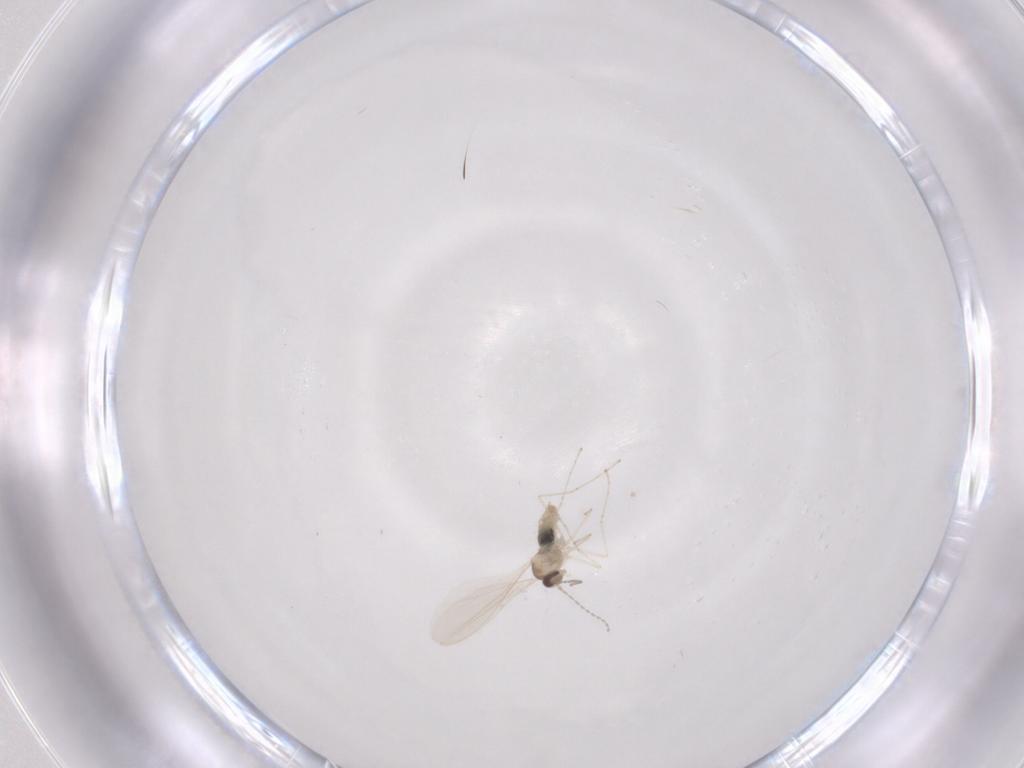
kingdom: Animalia
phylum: Arthropoda
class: Insecta
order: Diptera
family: Cecidomyiidae
